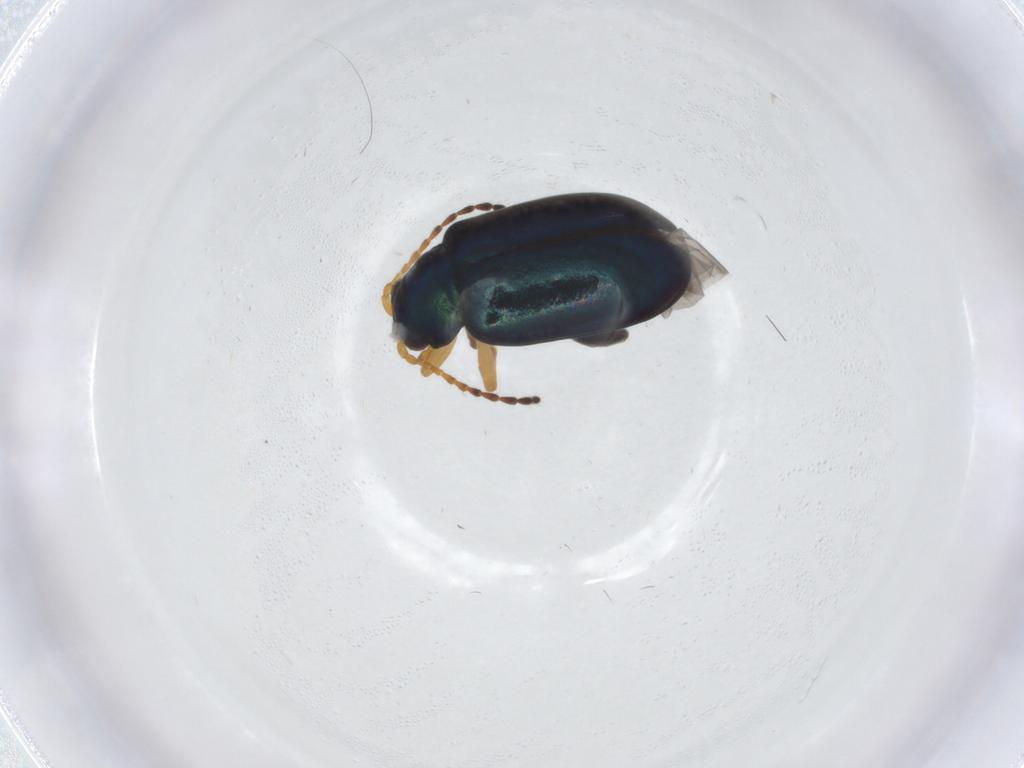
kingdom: Animalia
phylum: Arthropoda
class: Insecta
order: Coleoptera
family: Chrysomelidae
